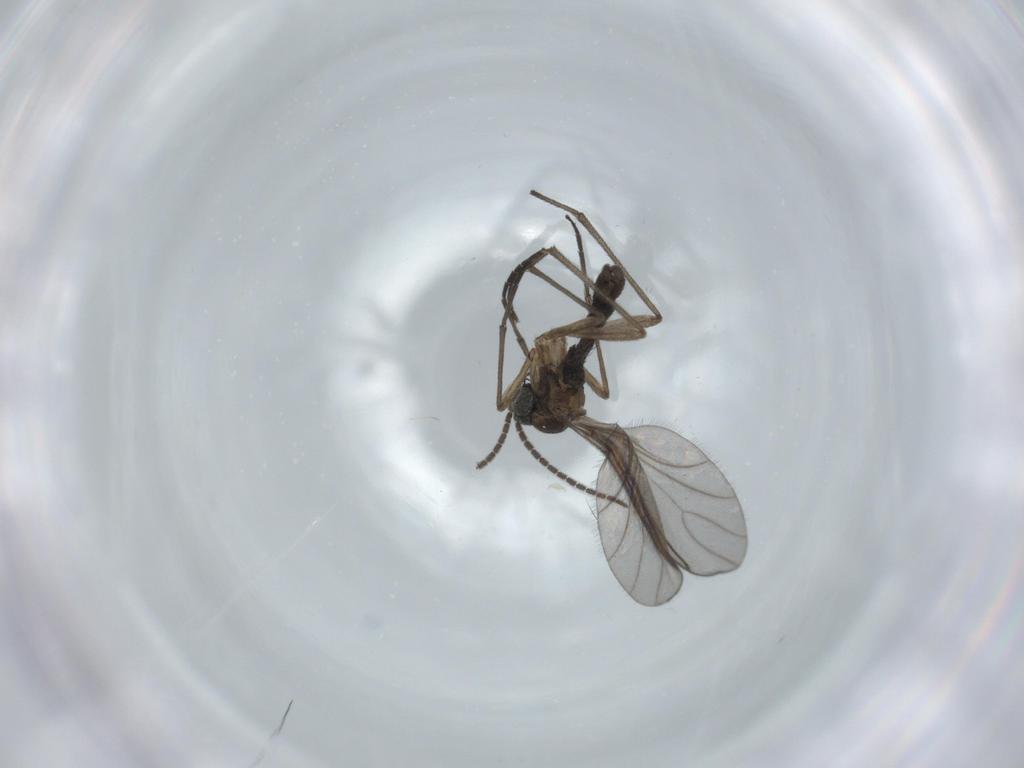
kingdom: Animalia
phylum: Arthropoda
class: Insecta
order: Diptera
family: Sciaridae
